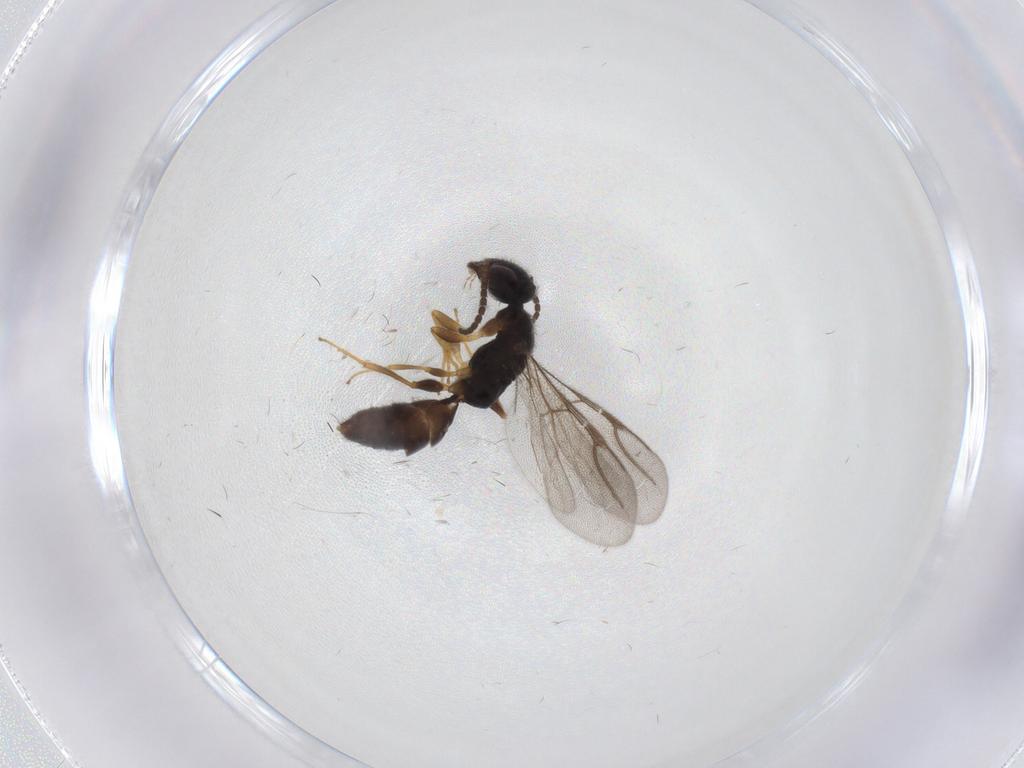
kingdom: Animalia
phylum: Arthropoda
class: Insecta
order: Hymenoptera
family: Bethylidae
